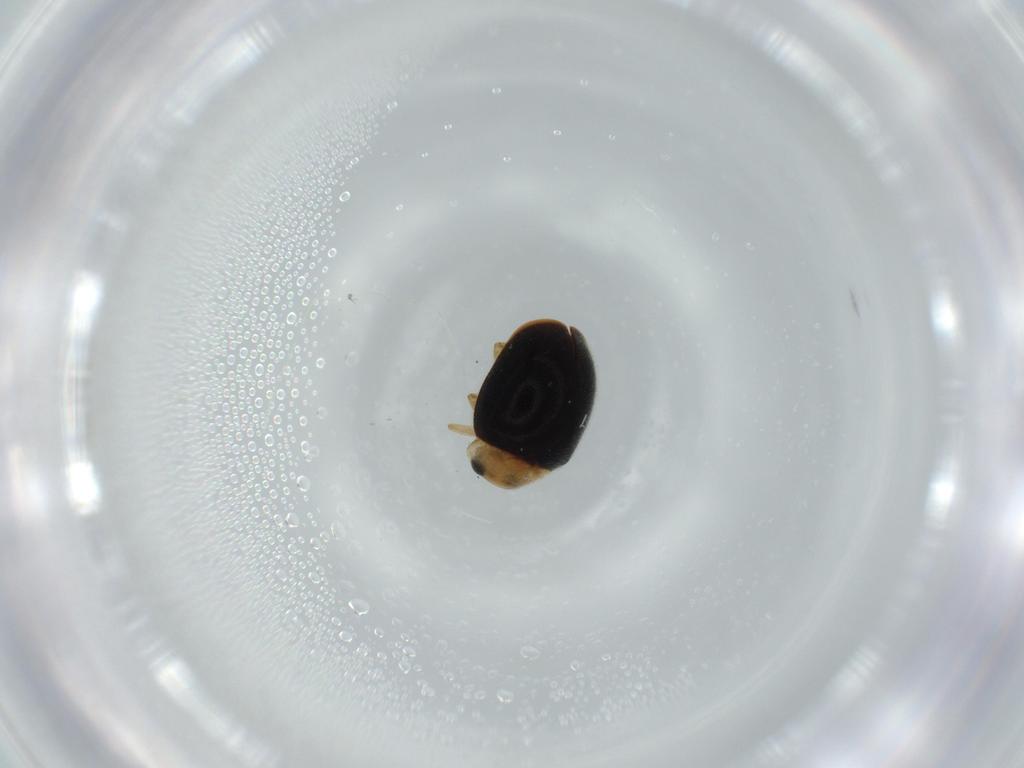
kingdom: Animalia
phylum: Arthropoda
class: Insecta
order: Coleoptera
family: Coccinellidae
